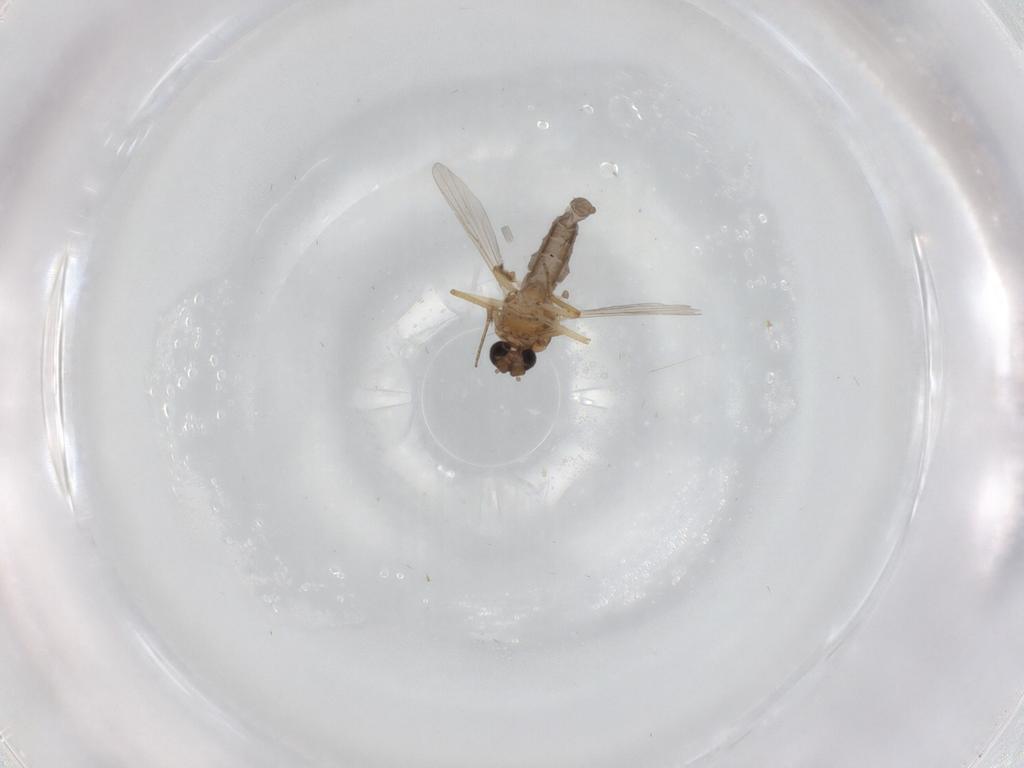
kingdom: Animalia
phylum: Arthropoda
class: Insecta
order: Diptera
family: Ceratopogonidae
